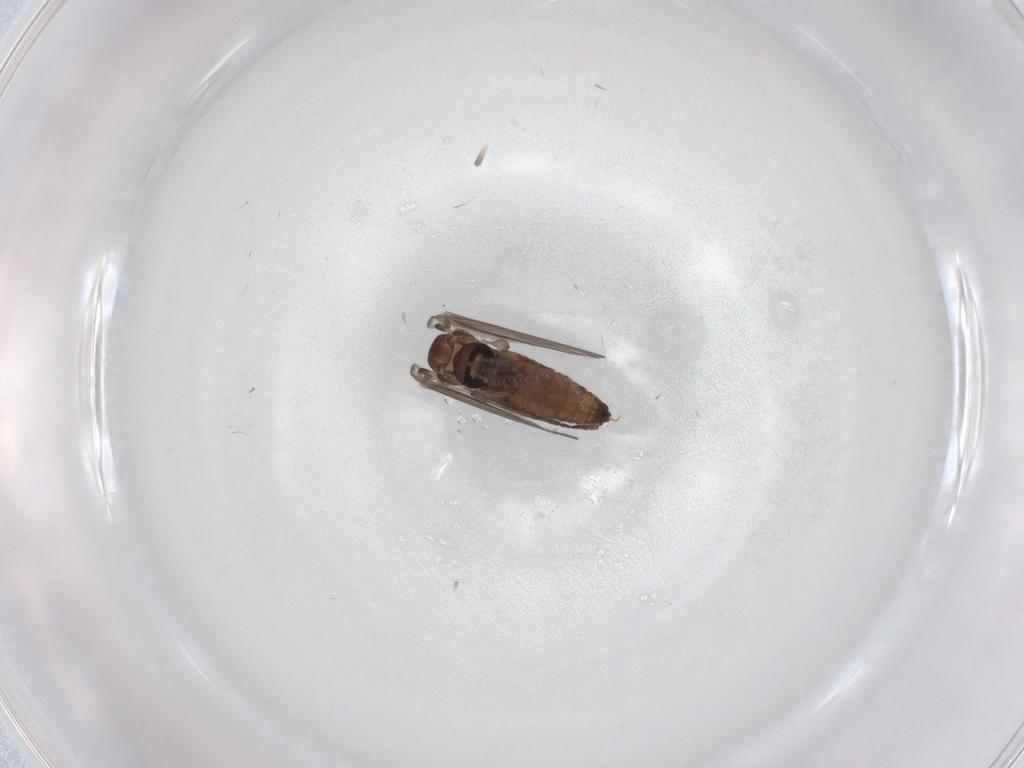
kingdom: Animalia
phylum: Arthropoda
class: Insecta
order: Diptera
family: Psychodidae
